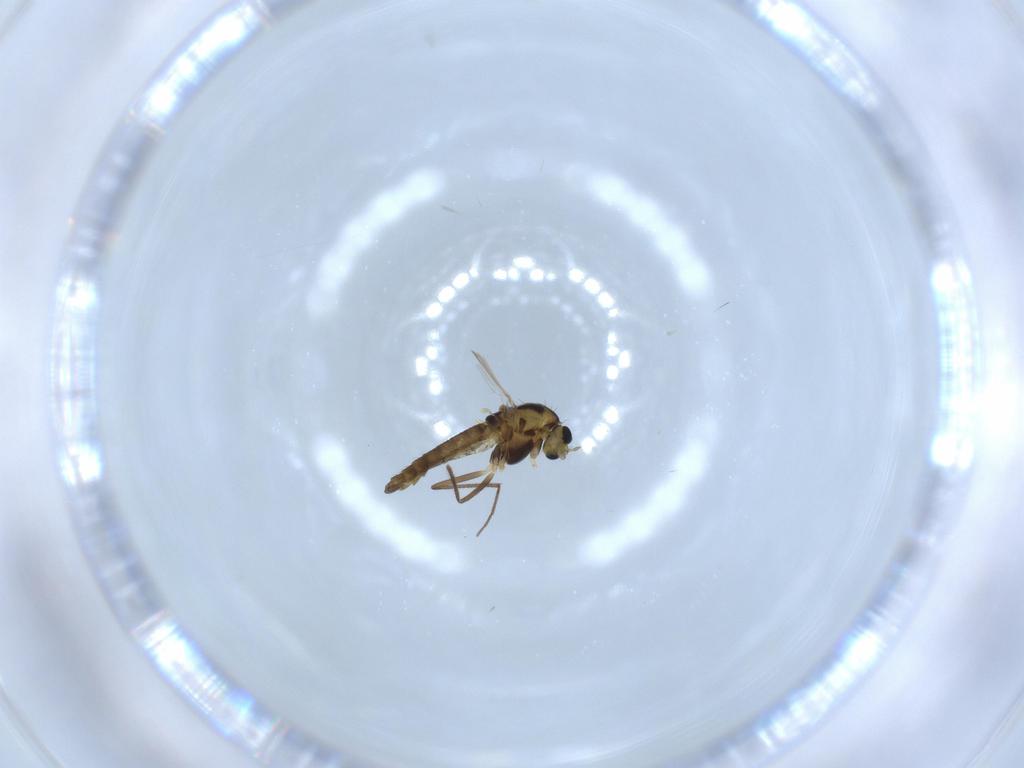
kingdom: Animalia
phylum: Arthropoda
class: Insecta
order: Diptera
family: Chironomidae
